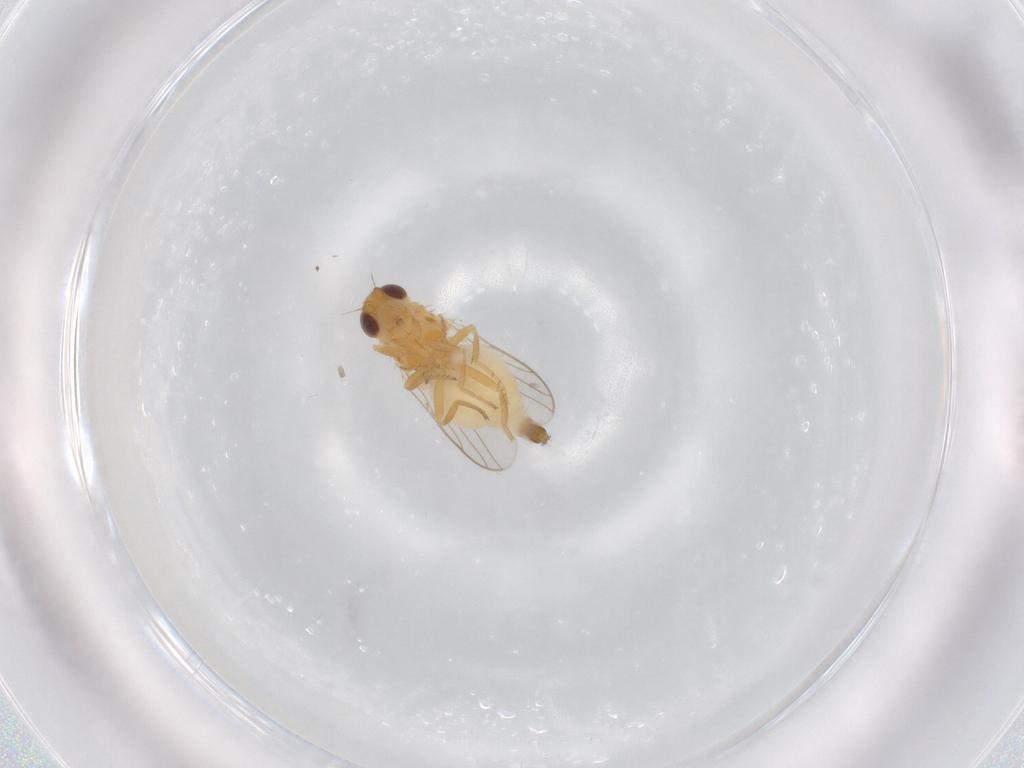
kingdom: Animalia
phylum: Arthropoda
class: Insecta
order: Diptera
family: Chloropidae
